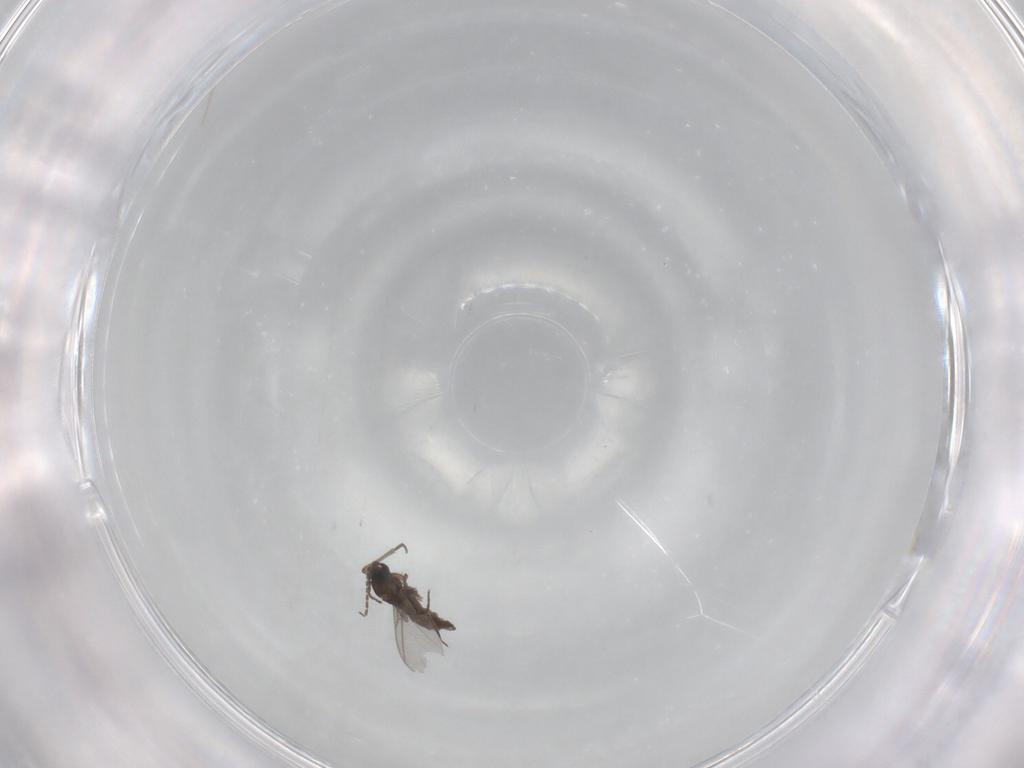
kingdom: Animalia
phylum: Arthropoda
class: Insecta
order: Diptera
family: Sciaridae
